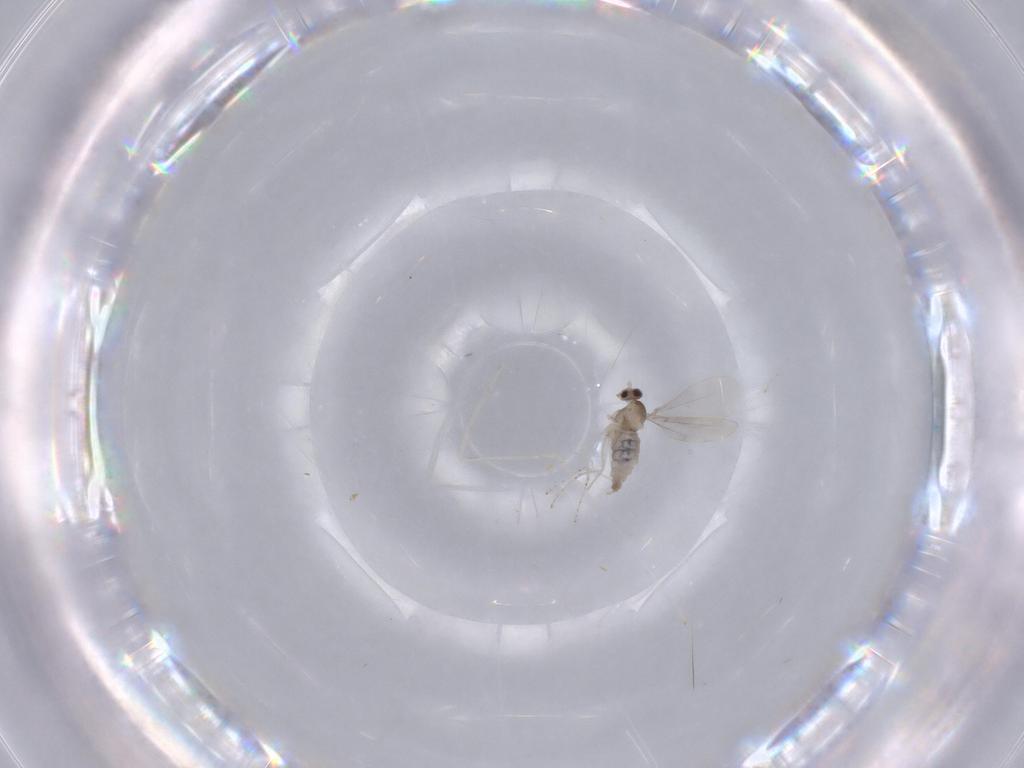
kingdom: Animalia
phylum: Arthropoda
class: Insecta
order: Diptera
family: Cecidomyiidae
